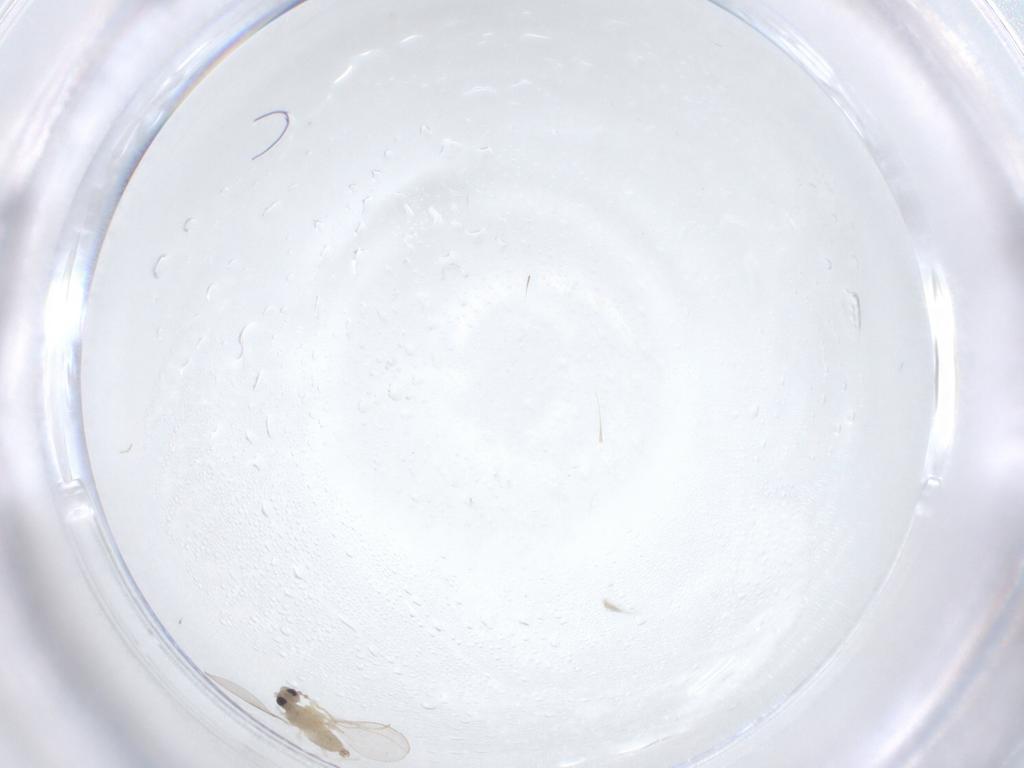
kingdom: Animalia
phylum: Arthropoda
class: Insecta
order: Diptera
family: Cecidomyiidae
